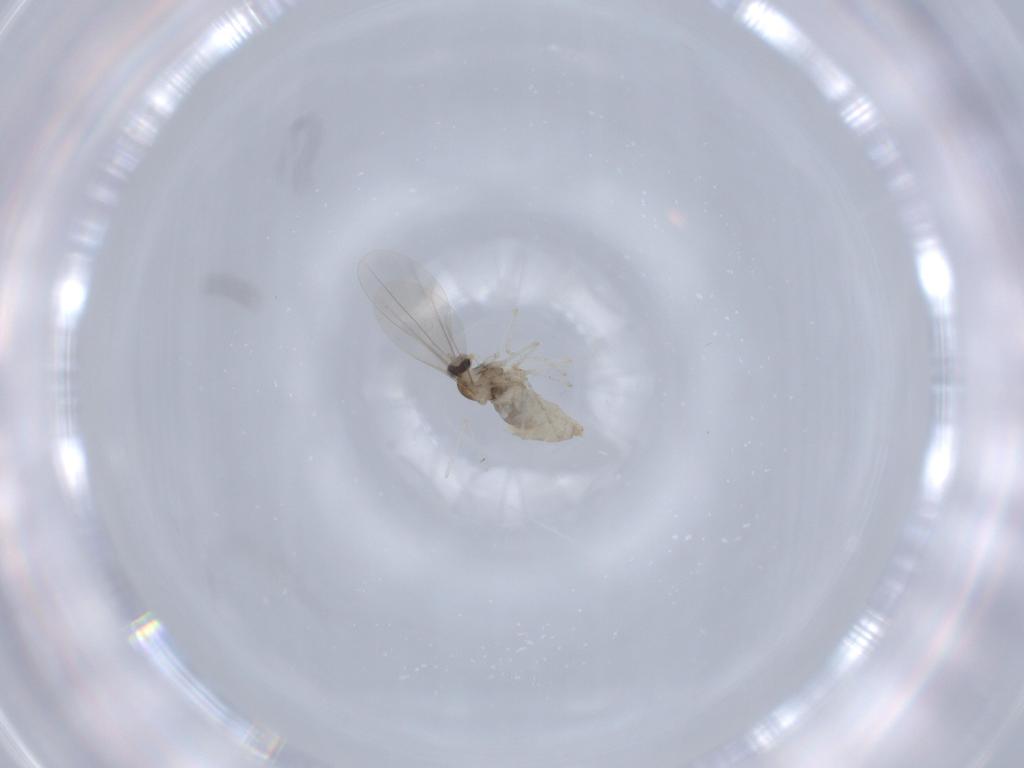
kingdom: Animalia
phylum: Arthropoda
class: Insecta
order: Diptera
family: Cecidomyiidae
